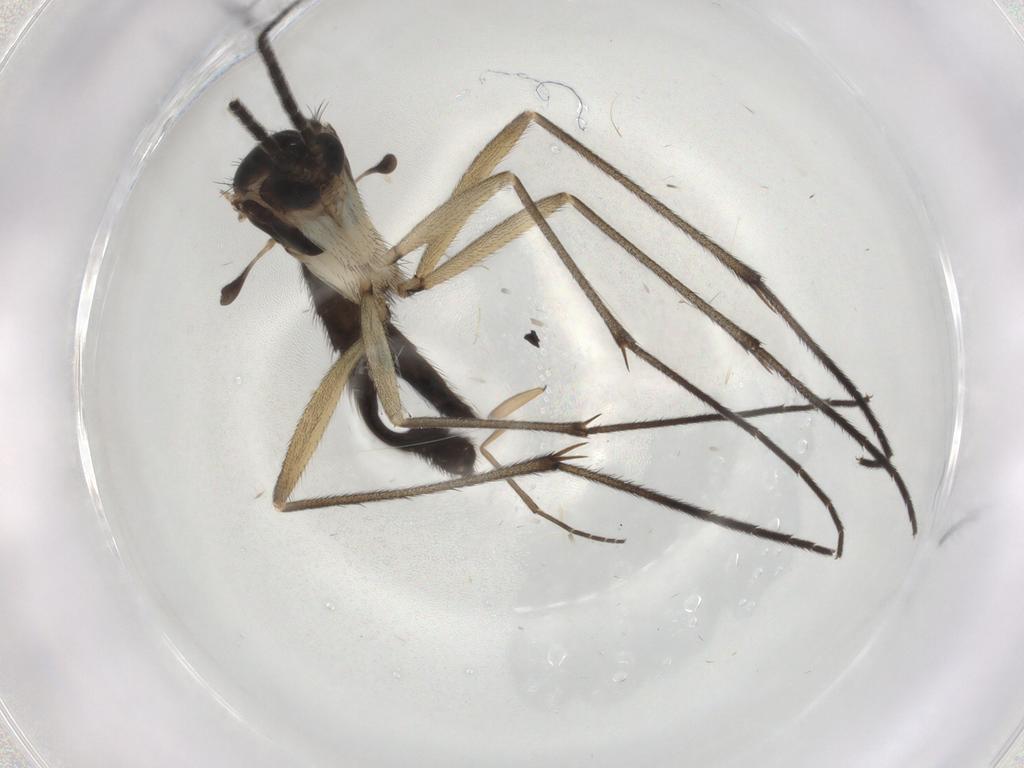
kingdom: Animalia
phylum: Arthropoda
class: Insecta
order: Diptera
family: Sciaridae
